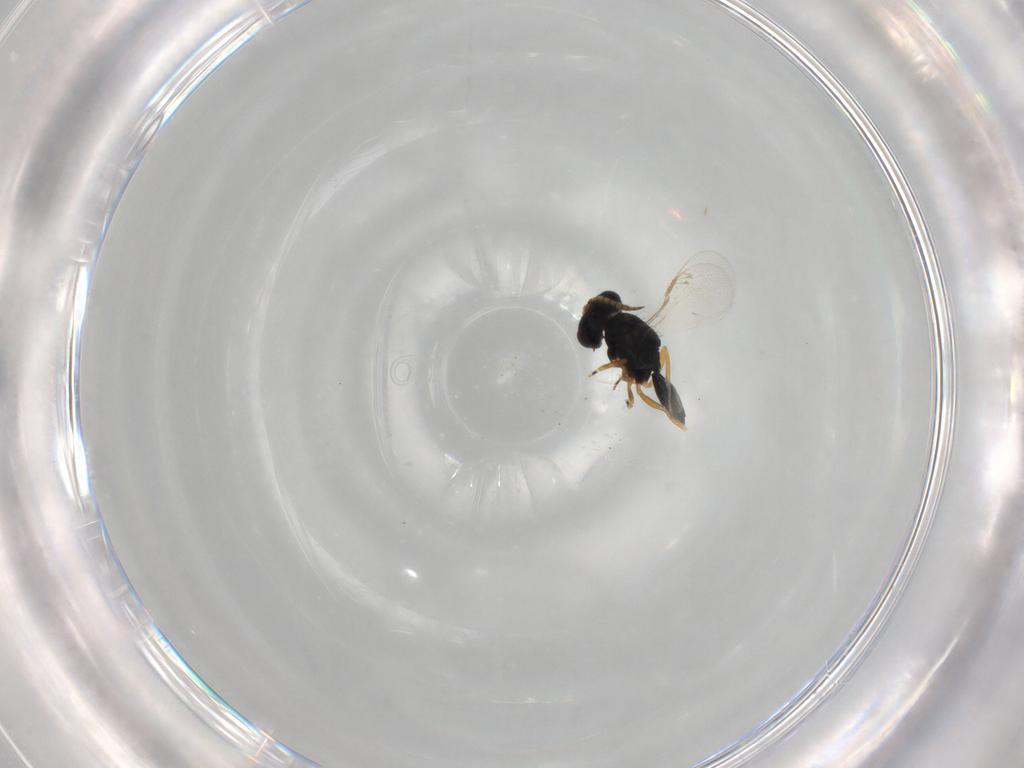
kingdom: Animalia
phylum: Arthropoda
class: Insecta
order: Hymenoptera
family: Pteromalidae
